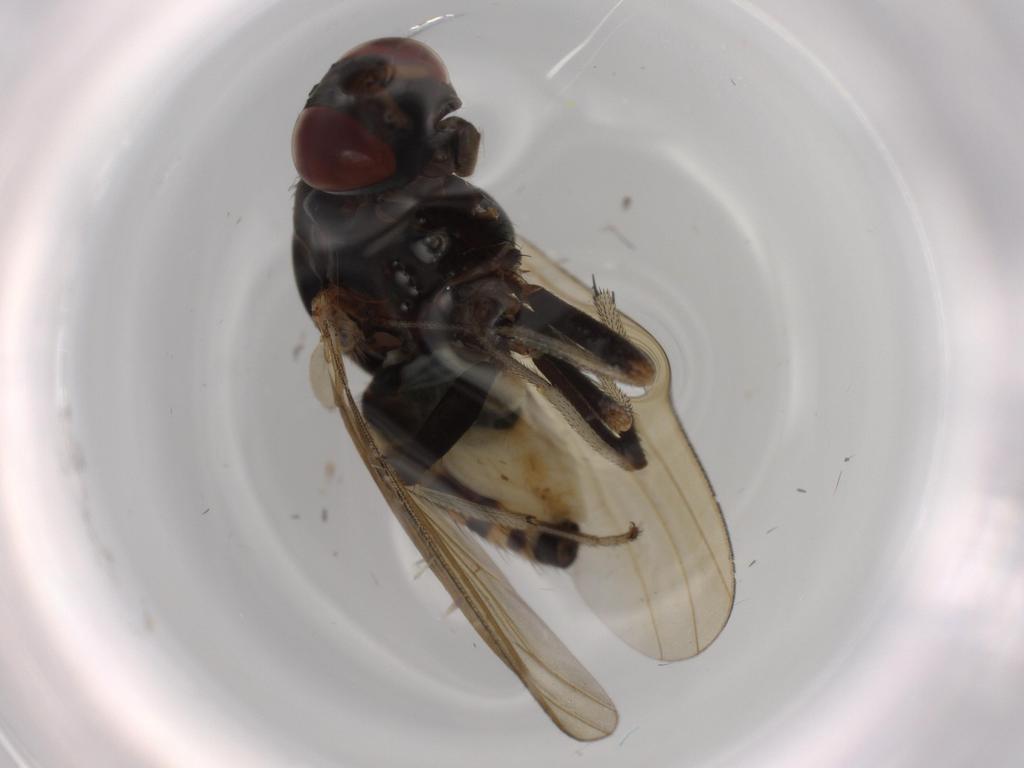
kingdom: Animalia
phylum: Arthropoda
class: Insecta
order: Diptera
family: Lauxaniidae
